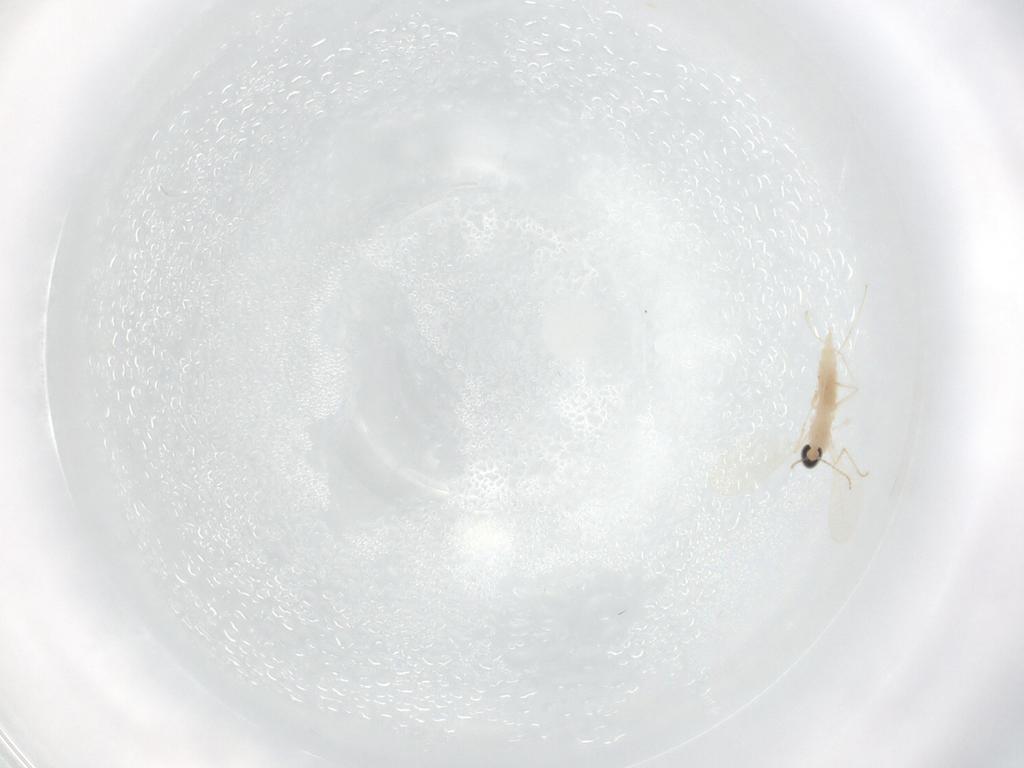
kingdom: Animalia
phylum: Arthropoda
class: Insecta
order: Diptera
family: Cecidomyiidae
